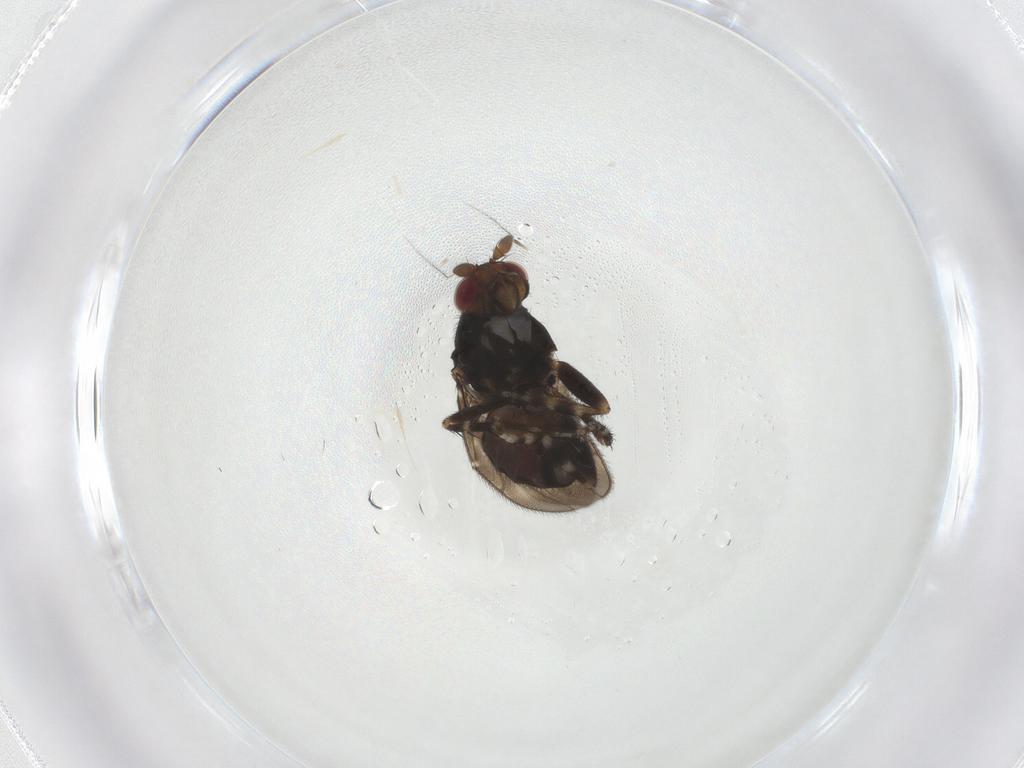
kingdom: Animalia
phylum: Arthropoda
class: Insecta
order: Diptera
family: Sphaeroceridae
